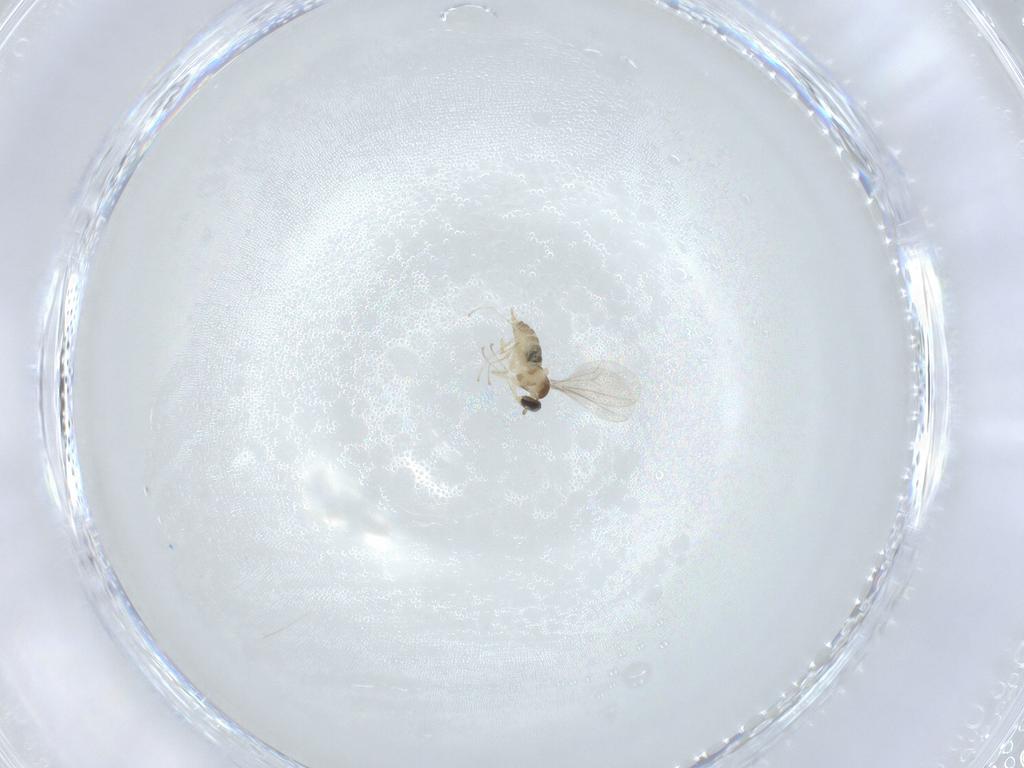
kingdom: Animalia
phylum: Arthropoda
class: Insecta
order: Diptera
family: Cecidomyiidae
